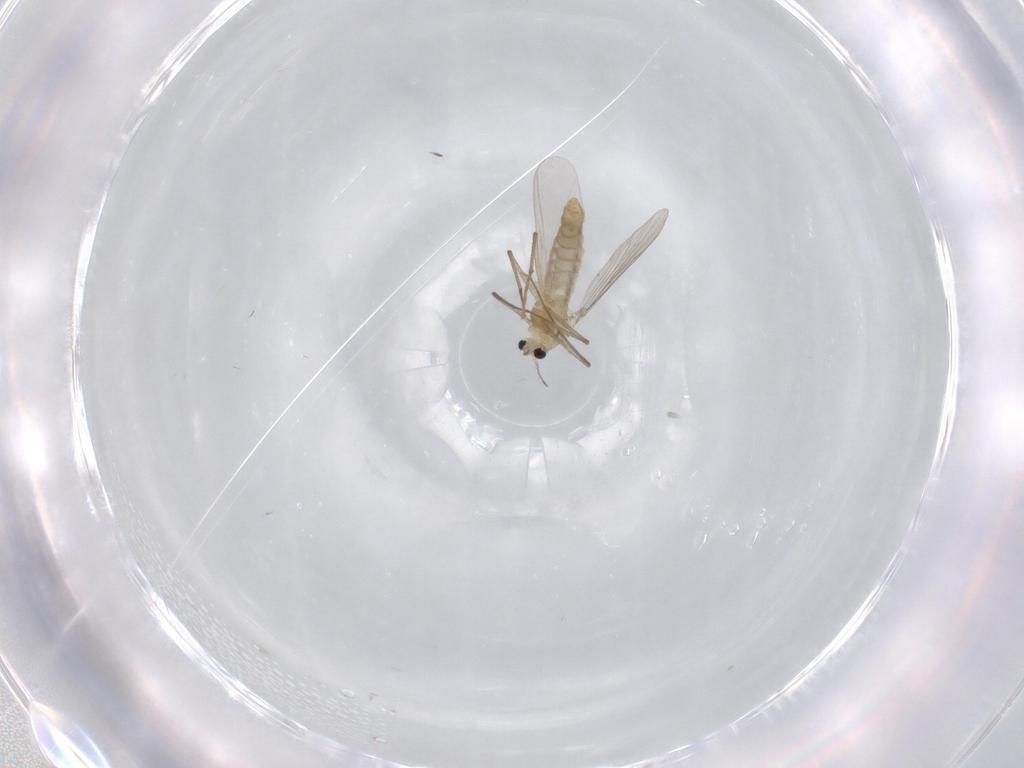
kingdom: Animalia
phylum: Arthropoda
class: Insecta
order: Diptera
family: Chironomidae
